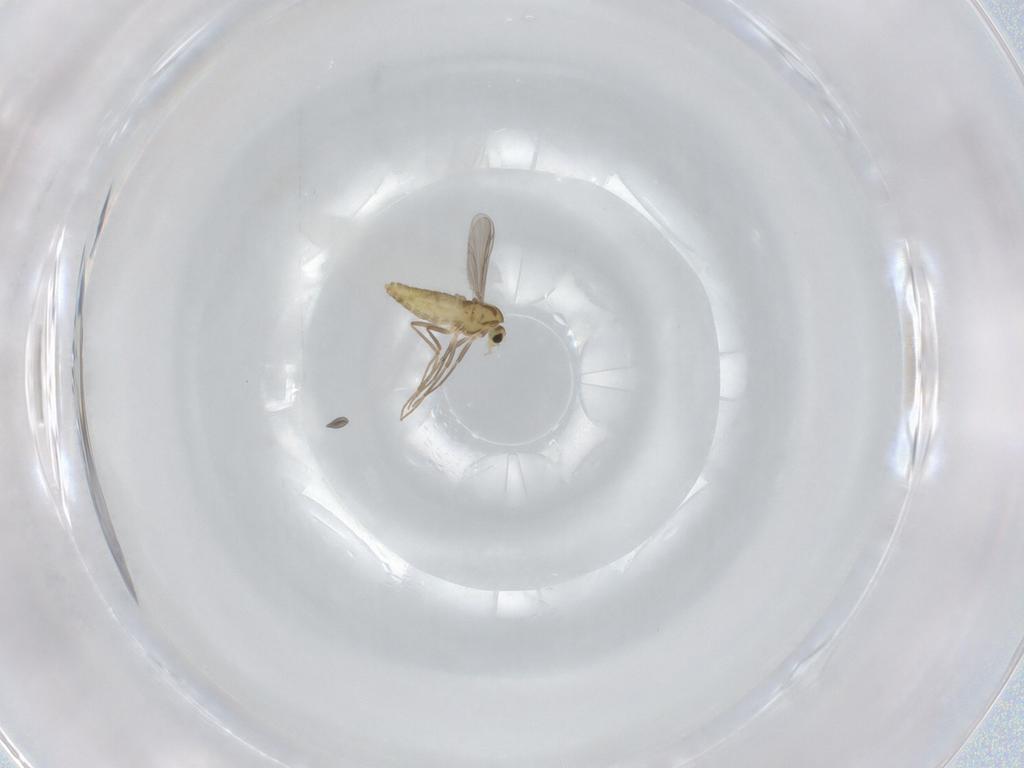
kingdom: Animalia
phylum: Arthropoda
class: Insecta
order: Diptera
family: Chironomidae
